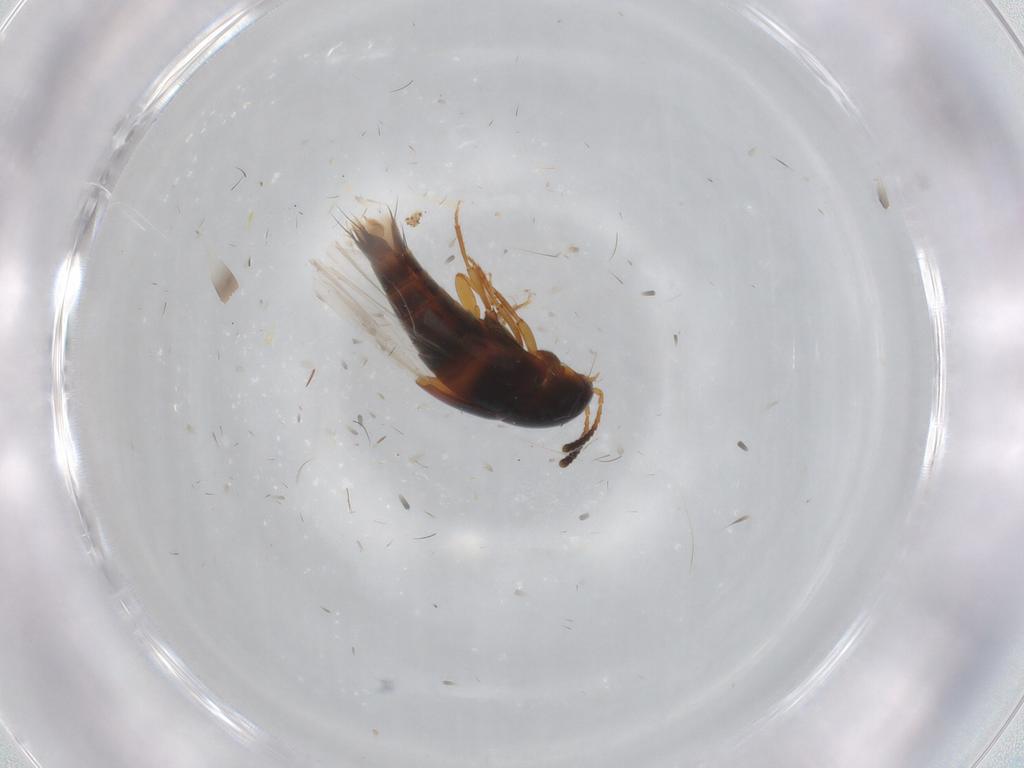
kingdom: Animalia
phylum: Arthropoda
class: Insecta
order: Coleoptera
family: Staphylinidae
